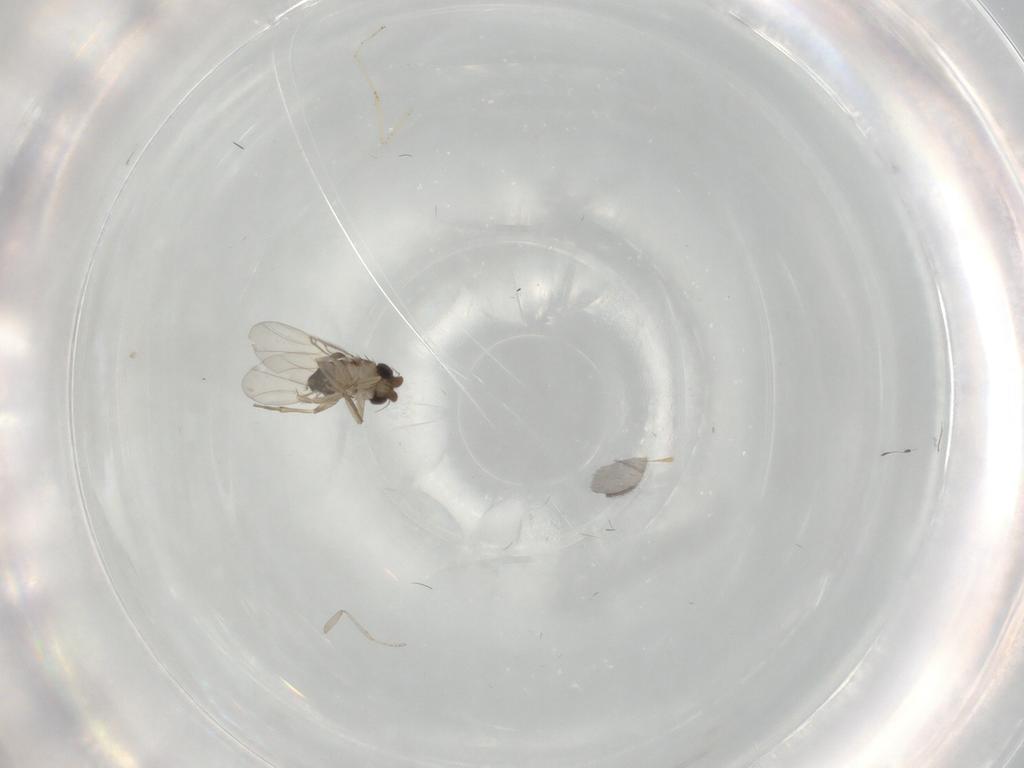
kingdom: Animalia
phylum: Arthropoda
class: Insecta
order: Diptera
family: Phoridae
